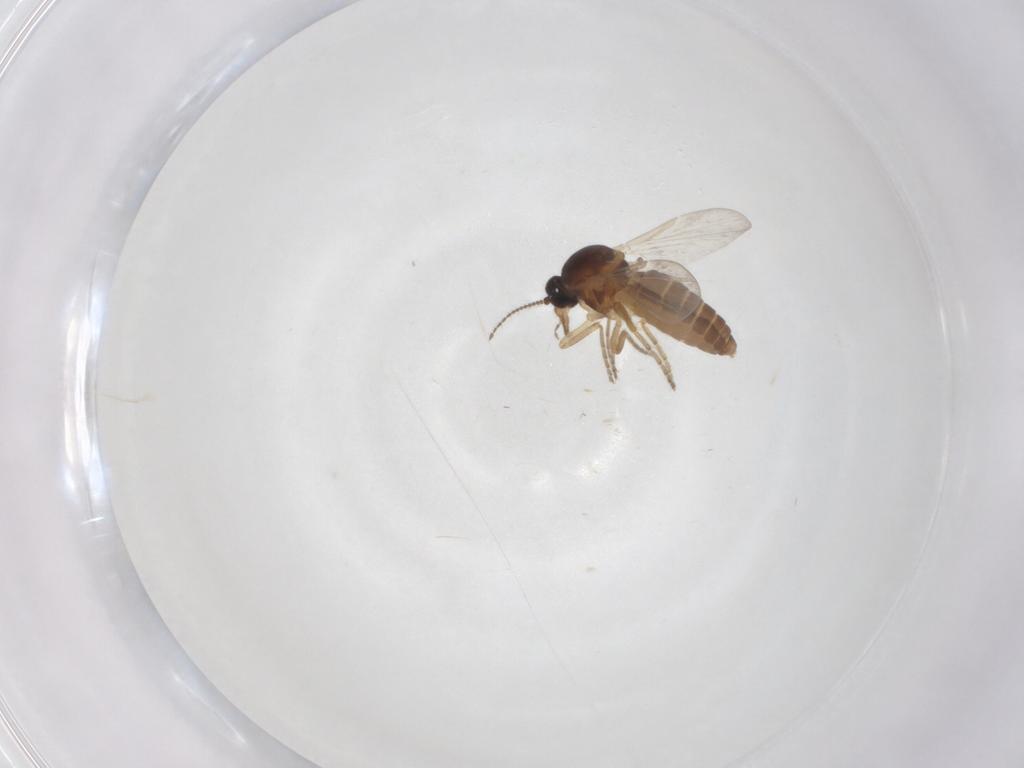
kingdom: Animalia
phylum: Arthropoda
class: Insecta
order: Diptera
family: Ceratopogonidae
